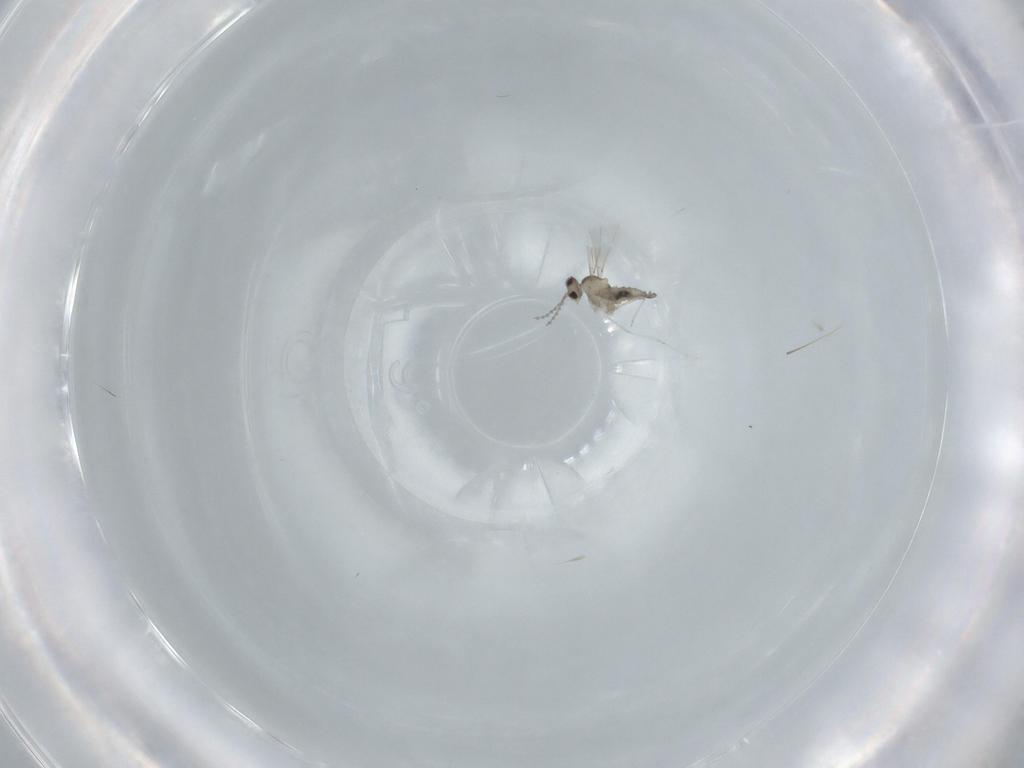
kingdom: Animalia
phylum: Arthropoda
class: Insecta
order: Diptera
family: Cecidomyiidae
